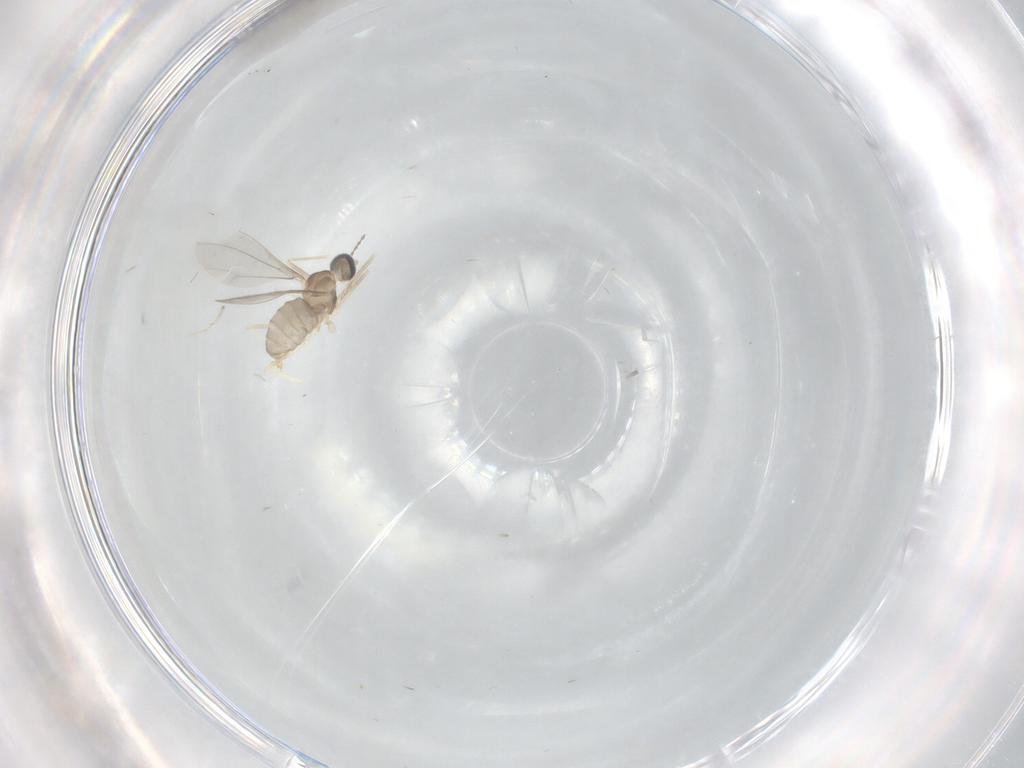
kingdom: Animalia
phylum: Arthropoda
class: Insecta
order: Diptera
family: Cecidomyiidae
